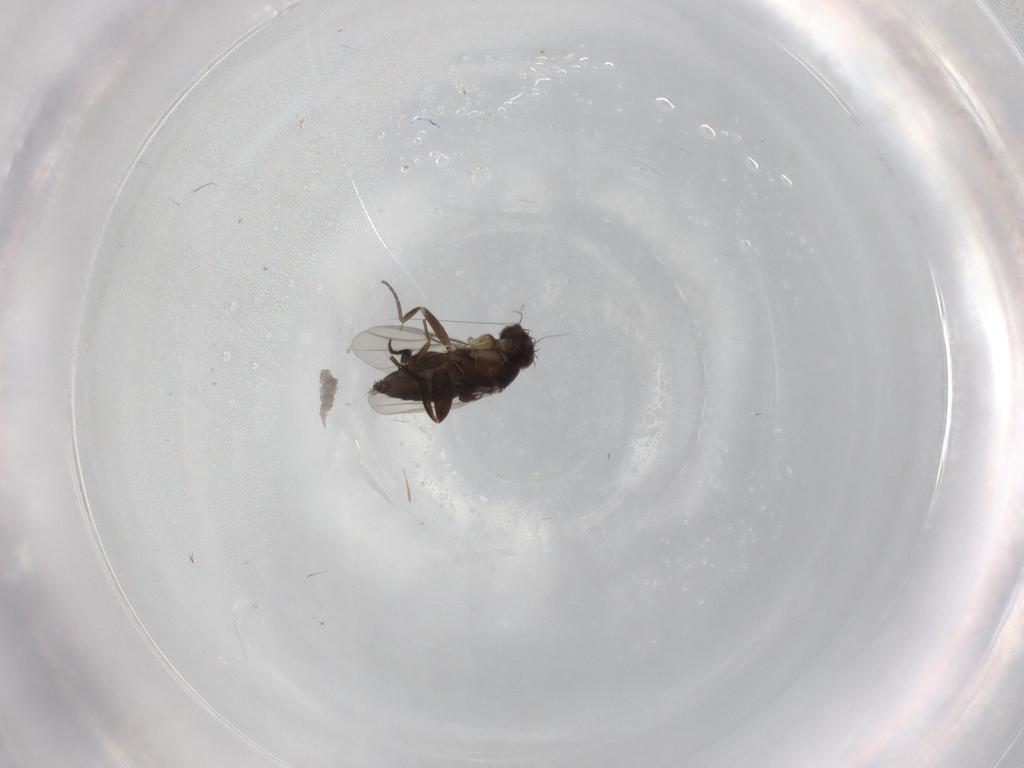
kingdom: Animalia
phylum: Arthropoda
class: Insecta
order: Diptera
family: Phoridae
